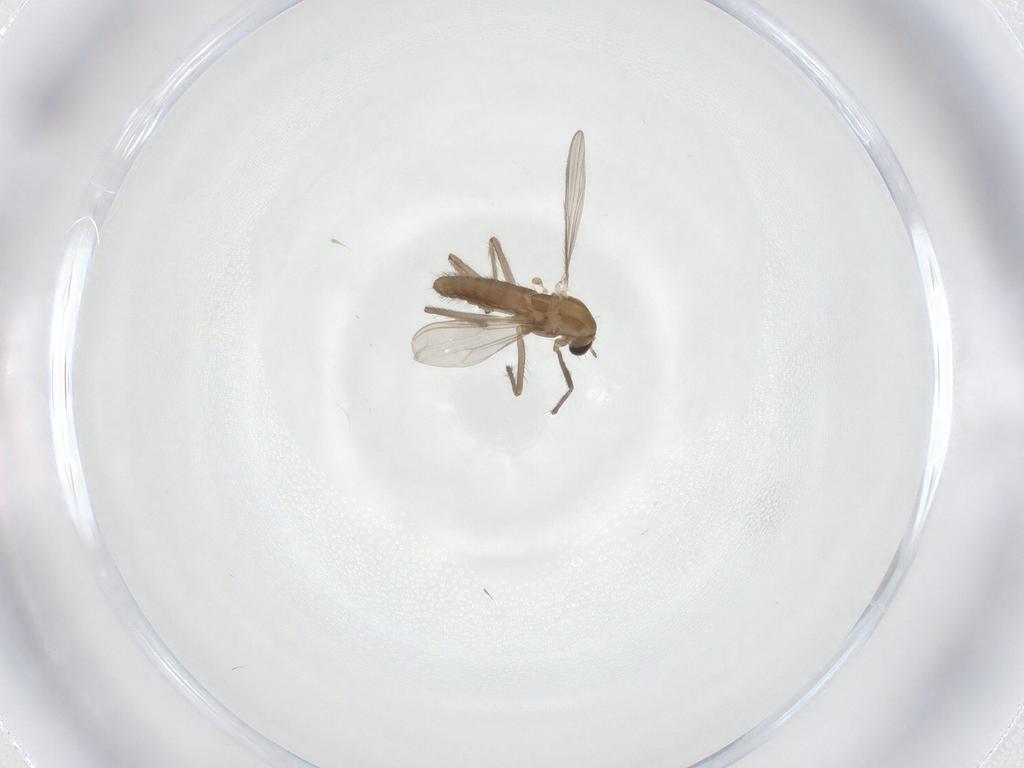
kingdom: Animalia
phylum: Arthropoda
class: Insecta
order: Diptera
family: Chironomidae
